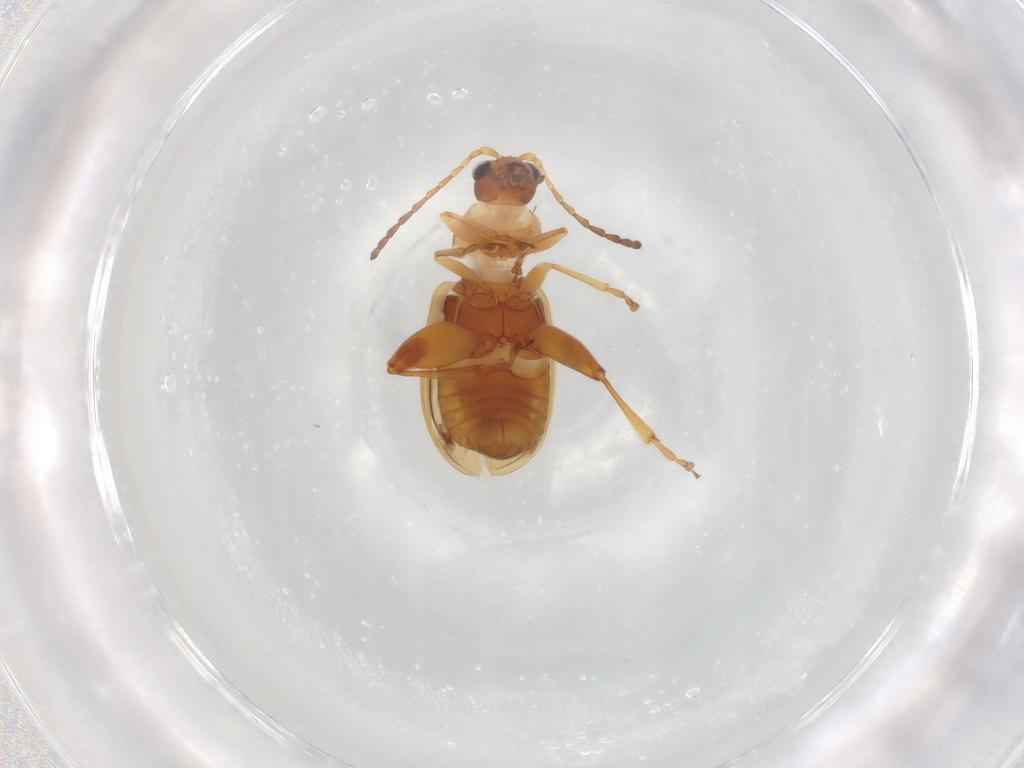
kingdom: Animalia
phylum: Arthropoda
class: Insecta
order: Coleoptera
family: Chrysomelidae
